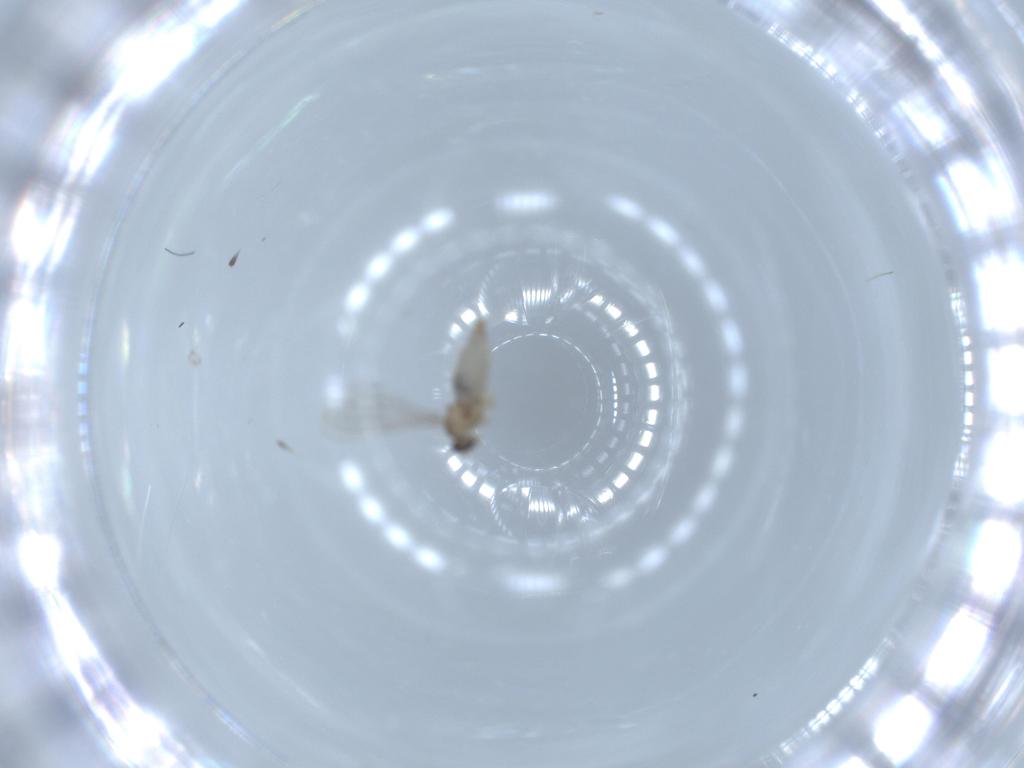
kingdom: Animalia
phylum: Arthropoda
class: Insecta
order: Diptera
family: Cecidomyiidae
